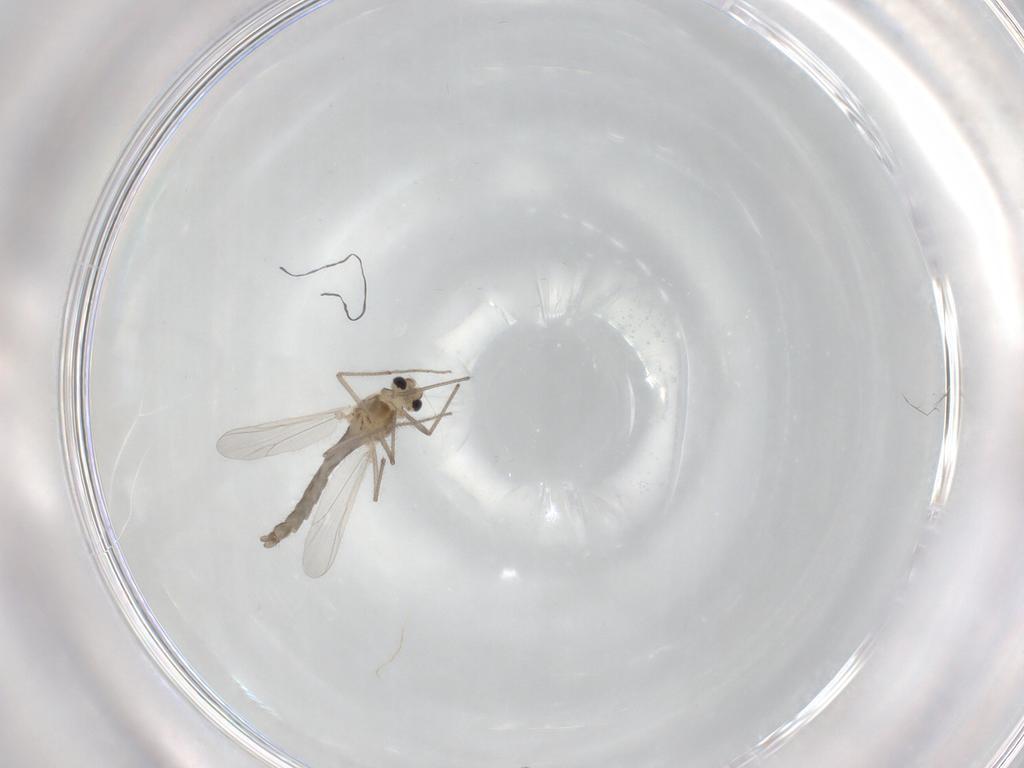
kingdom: Animalia
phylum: Arthropoda
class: Insecta
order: Diptera
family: Chironomidae
